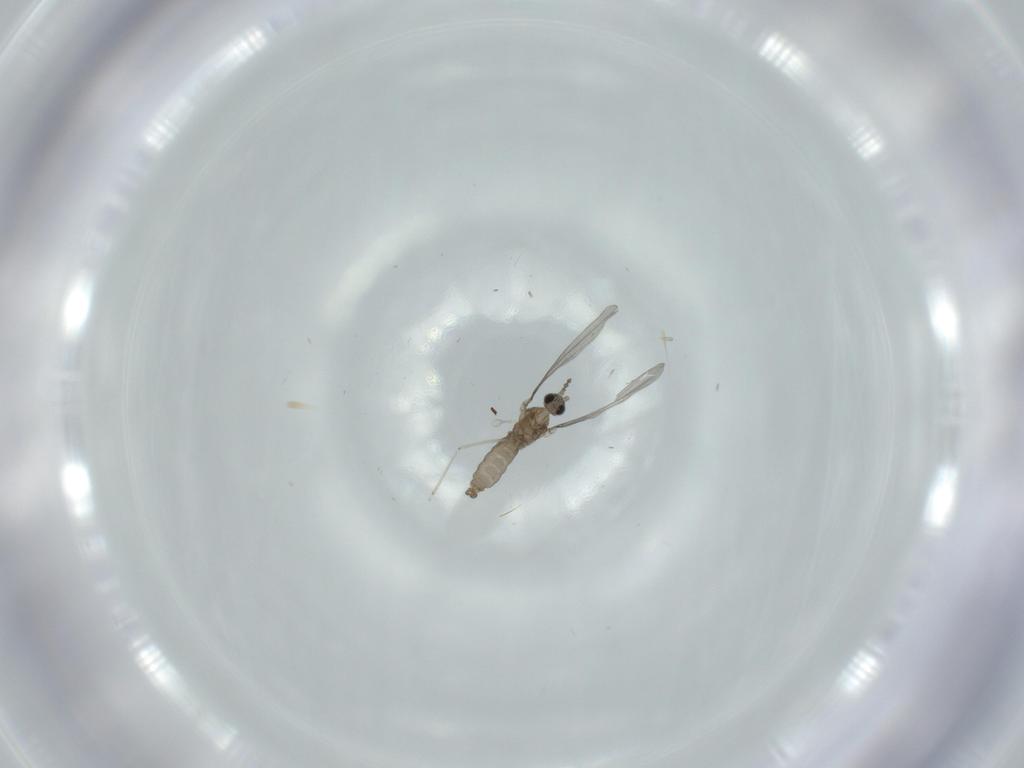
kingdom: Animalia
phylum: Arthropoda
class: Insecta
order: Diptera
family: Cecidomyiidae
